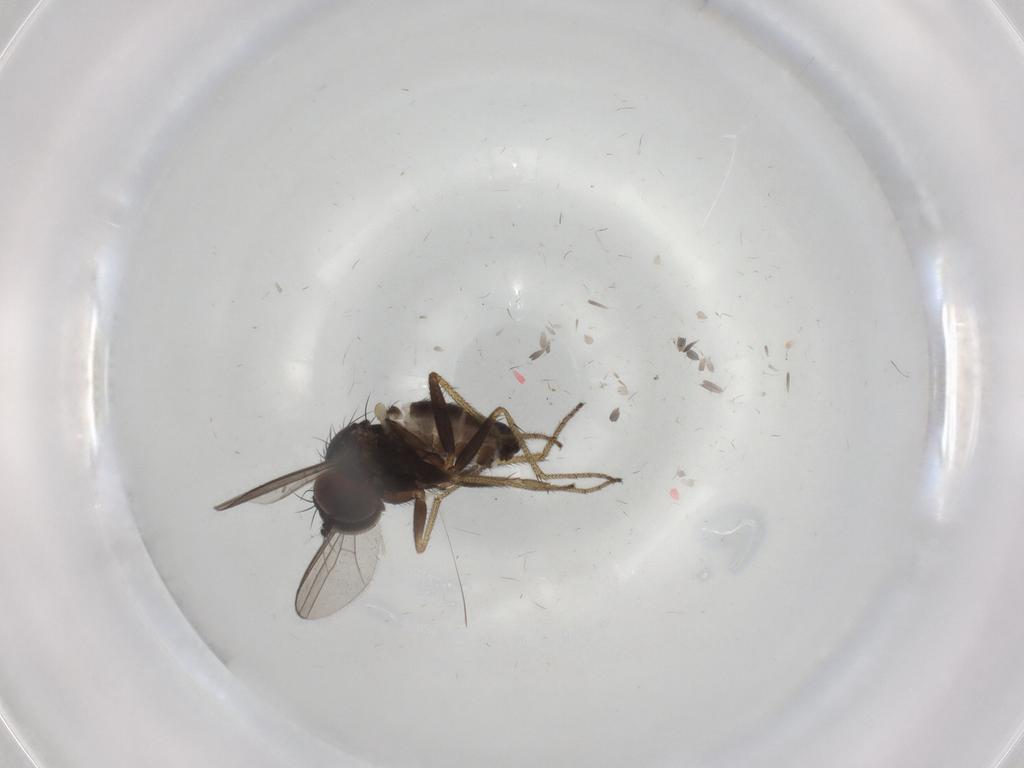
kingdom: Animalia
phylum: Arthropoda
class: Insecta
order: Diptera
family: Dolichopodidae
